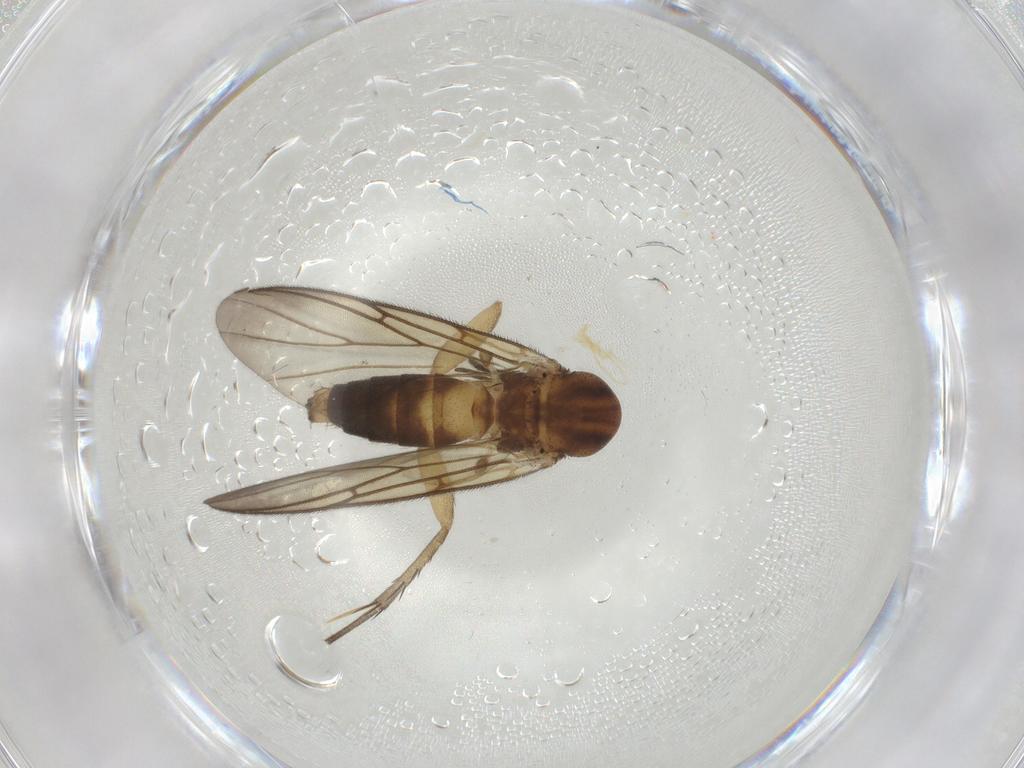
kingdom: Animalia
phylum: Arthropoda
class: Insecta
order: Diptera
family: Mycetophilidae
